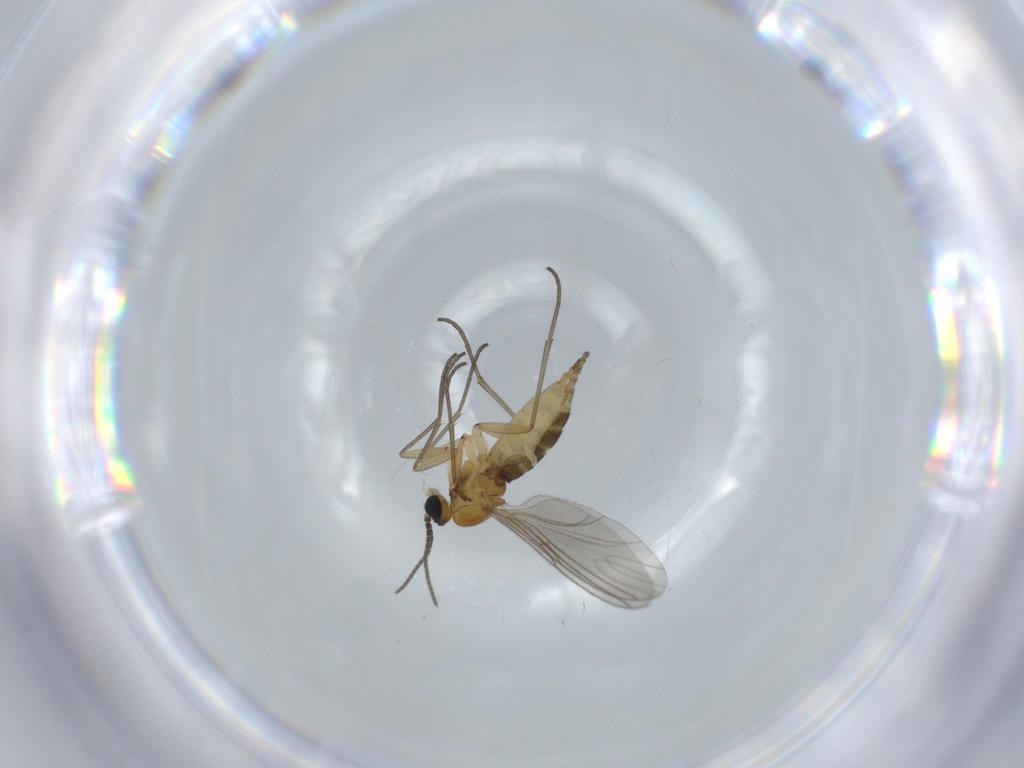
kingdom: Animalia
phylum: Arthropoda
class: Insecta
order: Diptera
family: Sciaridae
